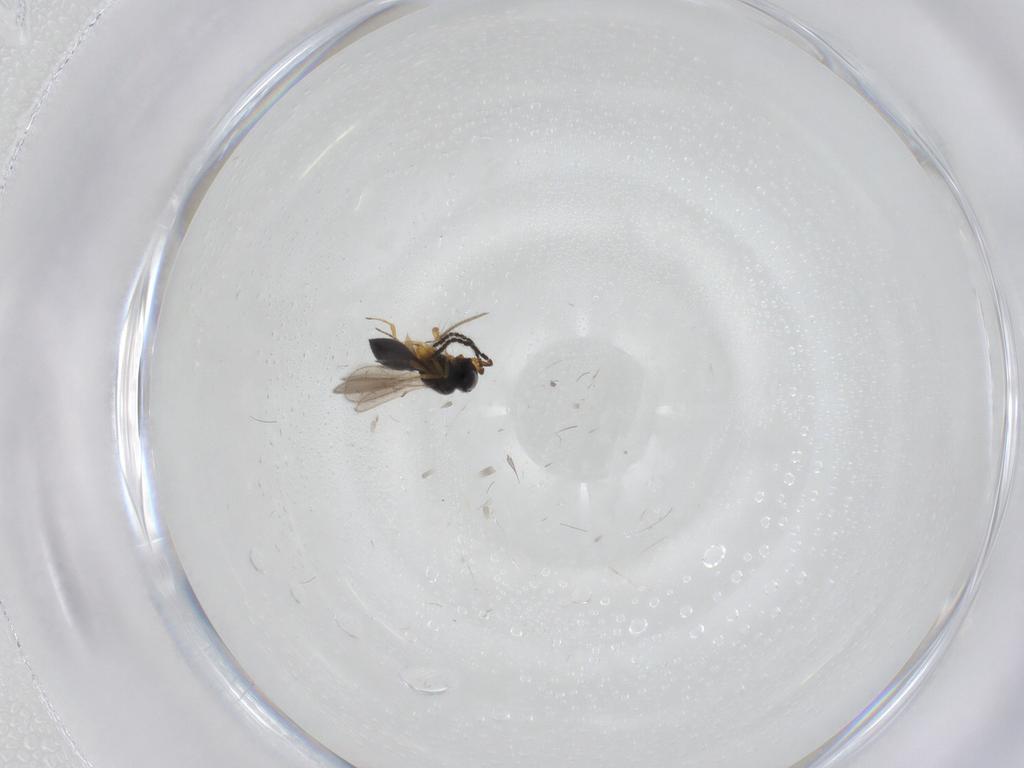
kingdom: Animalia
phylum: Arthropoda
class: Insecta
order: Hymenoptera
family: Scelionidae
